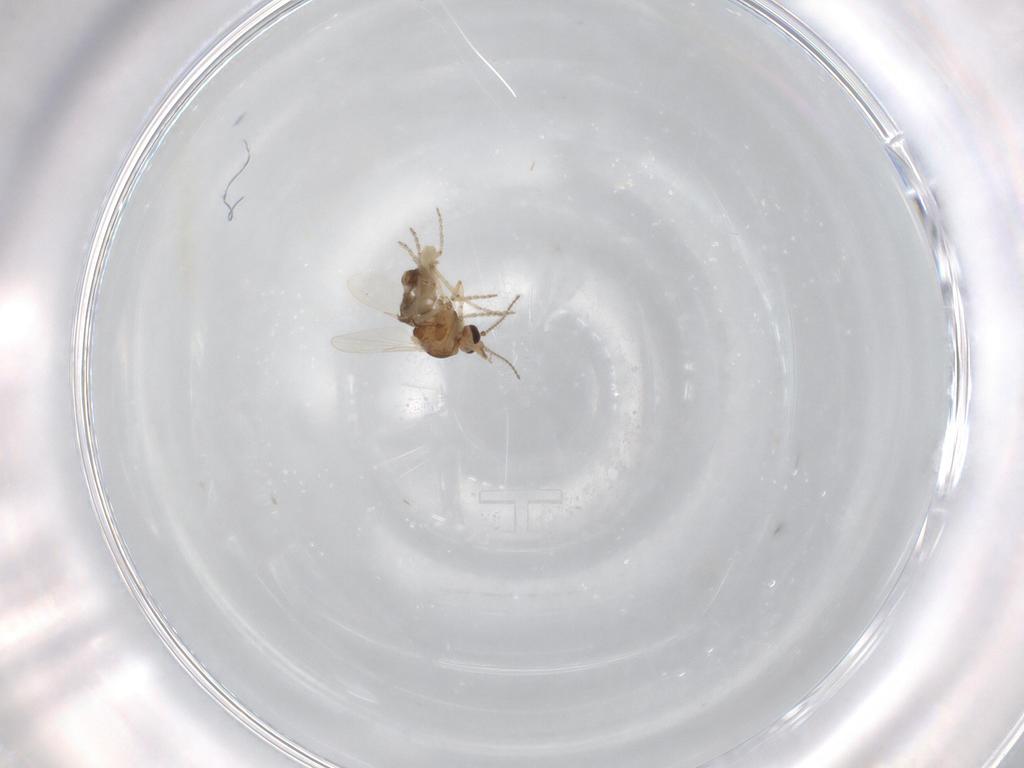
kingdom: Animalia
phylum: Arthropoda
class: Insecta
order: Diptera
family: Ceratopogonidae
